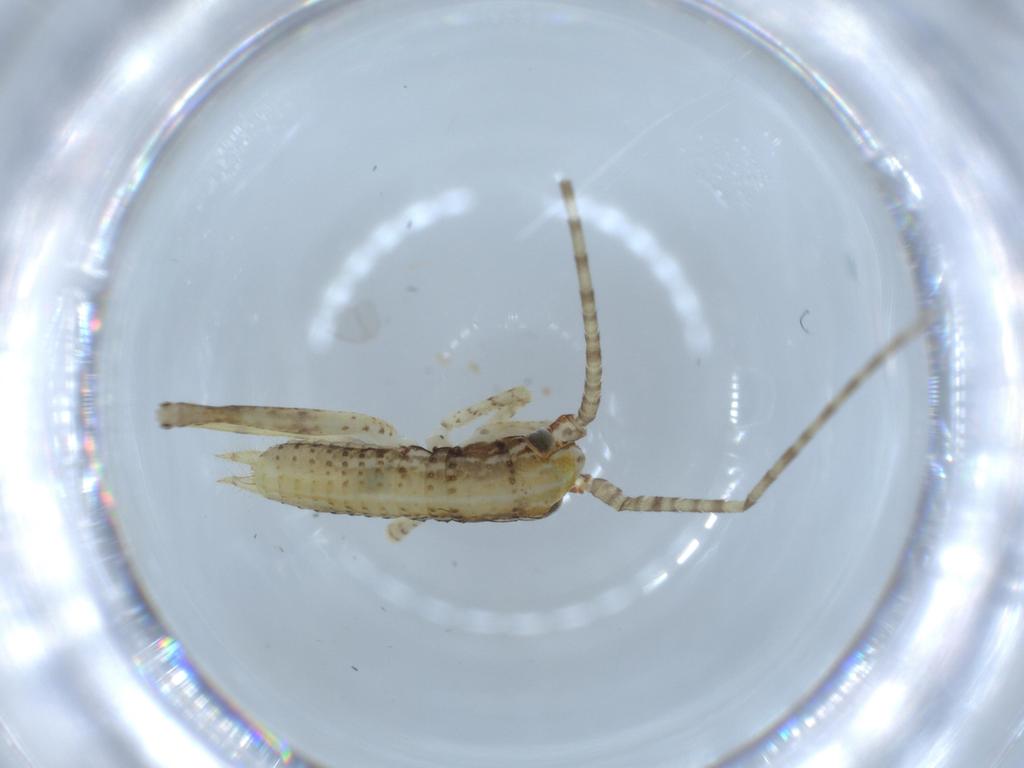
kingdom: Animalia
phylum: Arthropoda
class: Insecta
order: Orthoptera
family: Gryllidae
